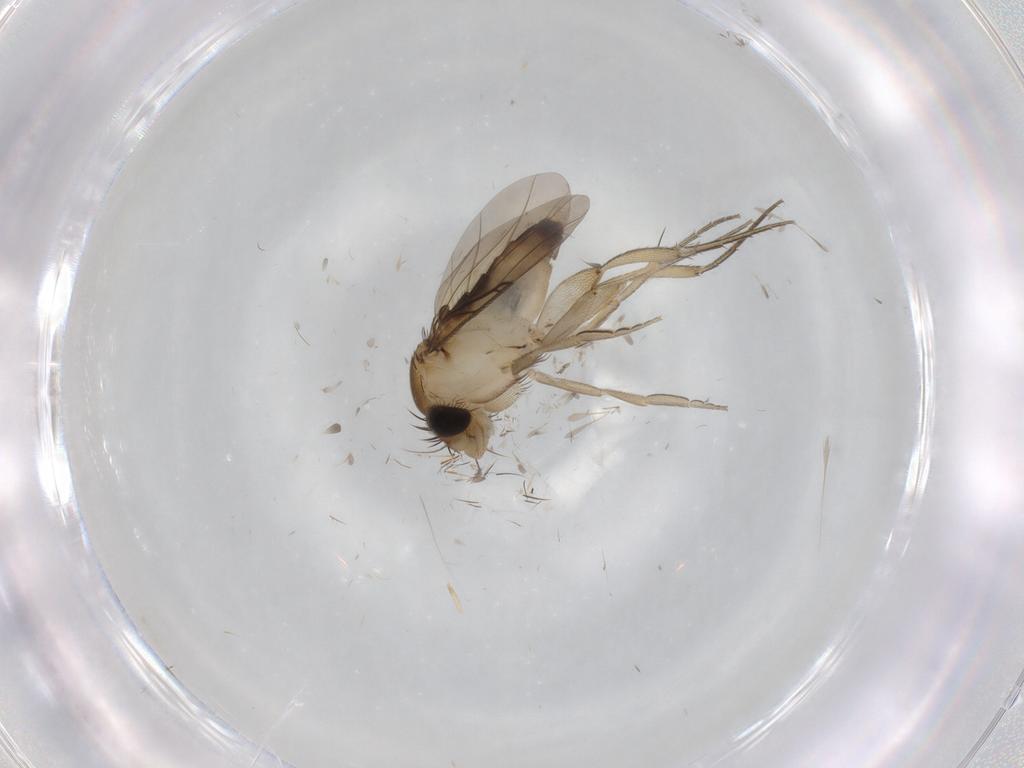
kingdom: Animalia
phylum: Arthropoda
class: Insecta
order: Diptera
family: Phoridae
